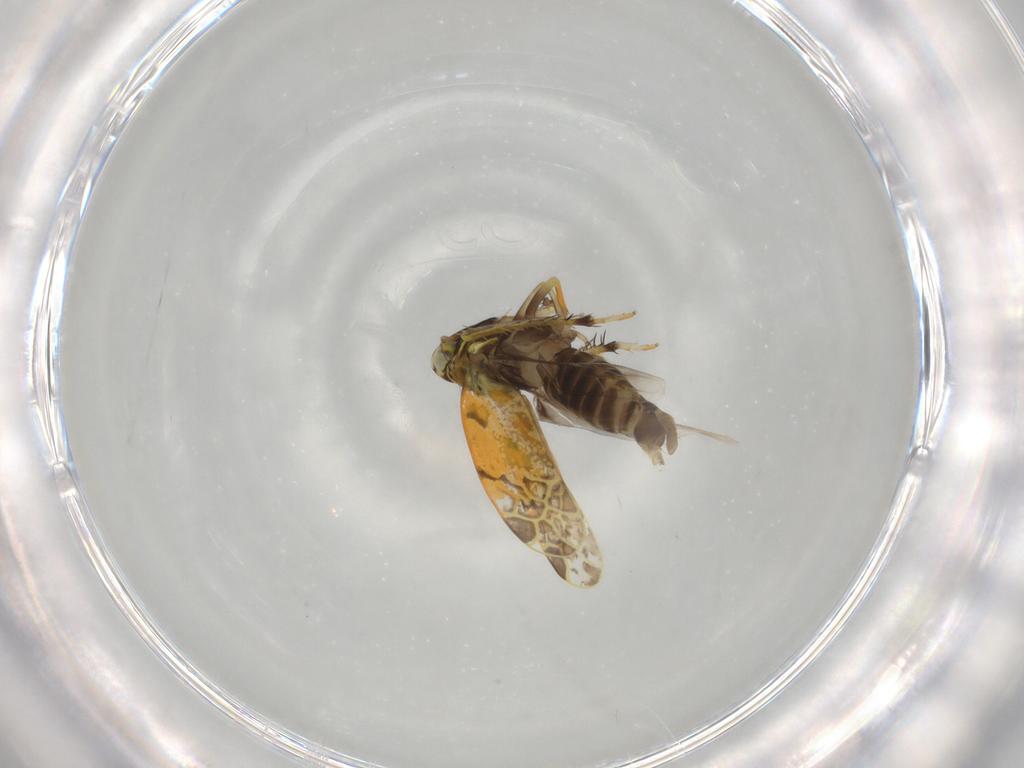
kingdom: Animalia
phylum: Arthropoda
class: Insecta
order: Hemiptera
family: Cicadellidae
